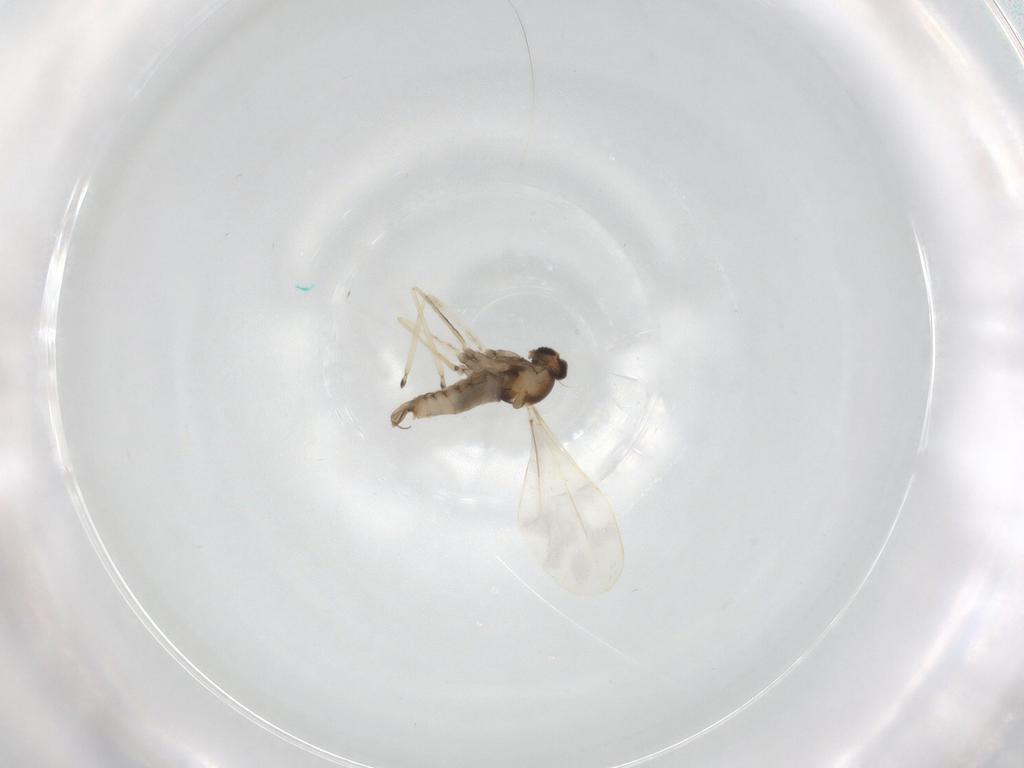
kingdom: Animalia
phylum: Arthropoda
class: Insecta
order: Diptera
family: Cecidomyiidae
